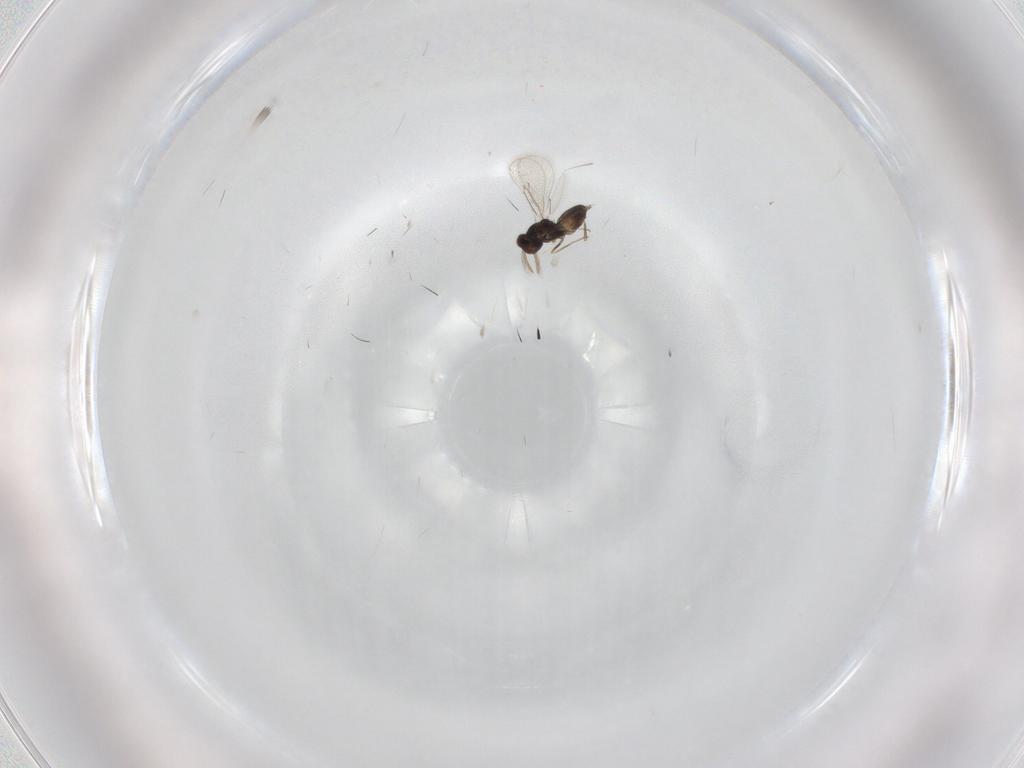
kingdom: Animalia
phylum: Arthropoda
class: Insecta
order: Hymenoptera
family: Eulophidae
